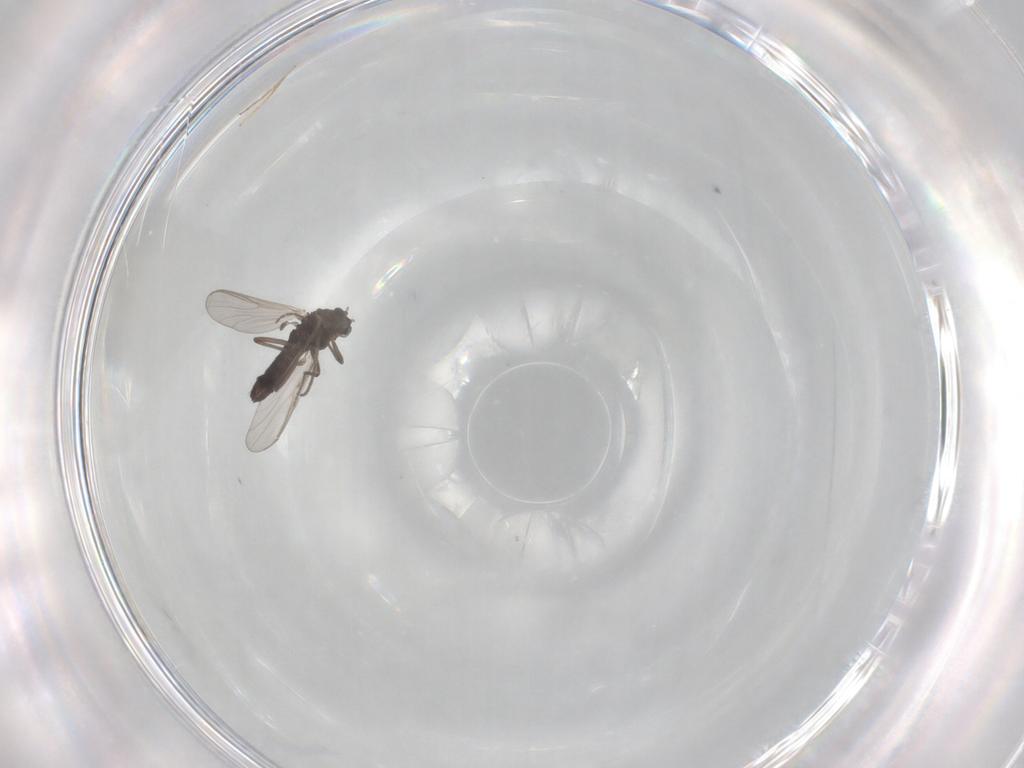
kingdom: Animalia
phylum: Arthropoda
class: Insecta
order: Diptera
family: Chironomidae
